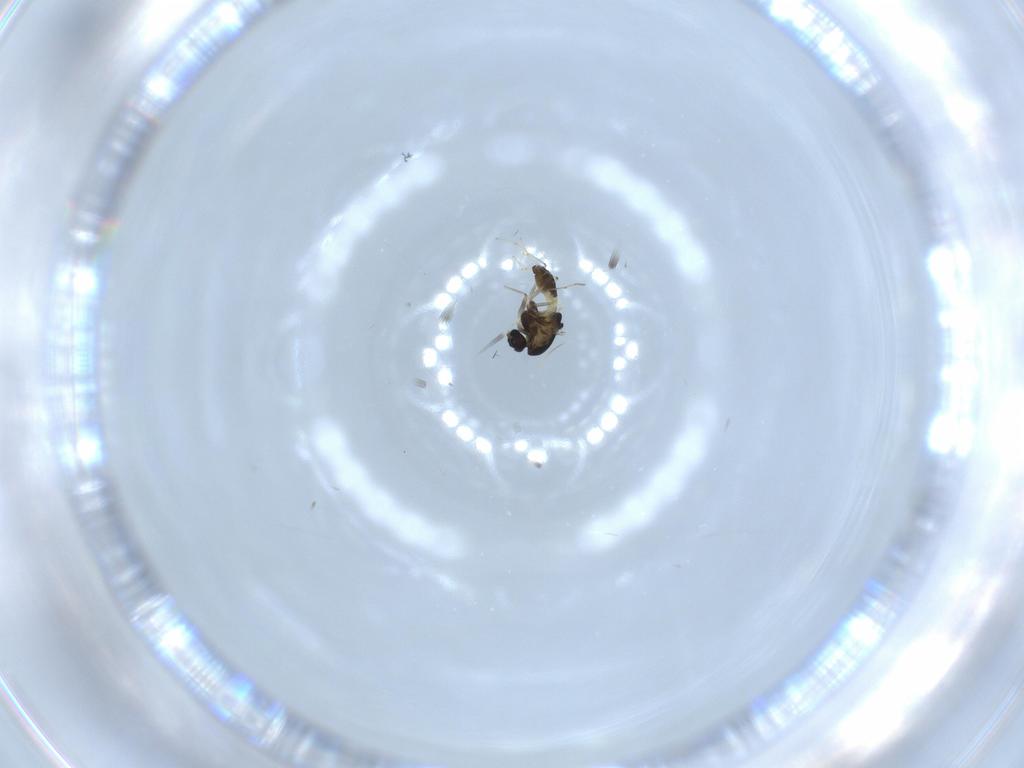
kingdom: Animalia
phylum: Arthropoda
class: Insecta
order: Diptera
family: Chironomidae
